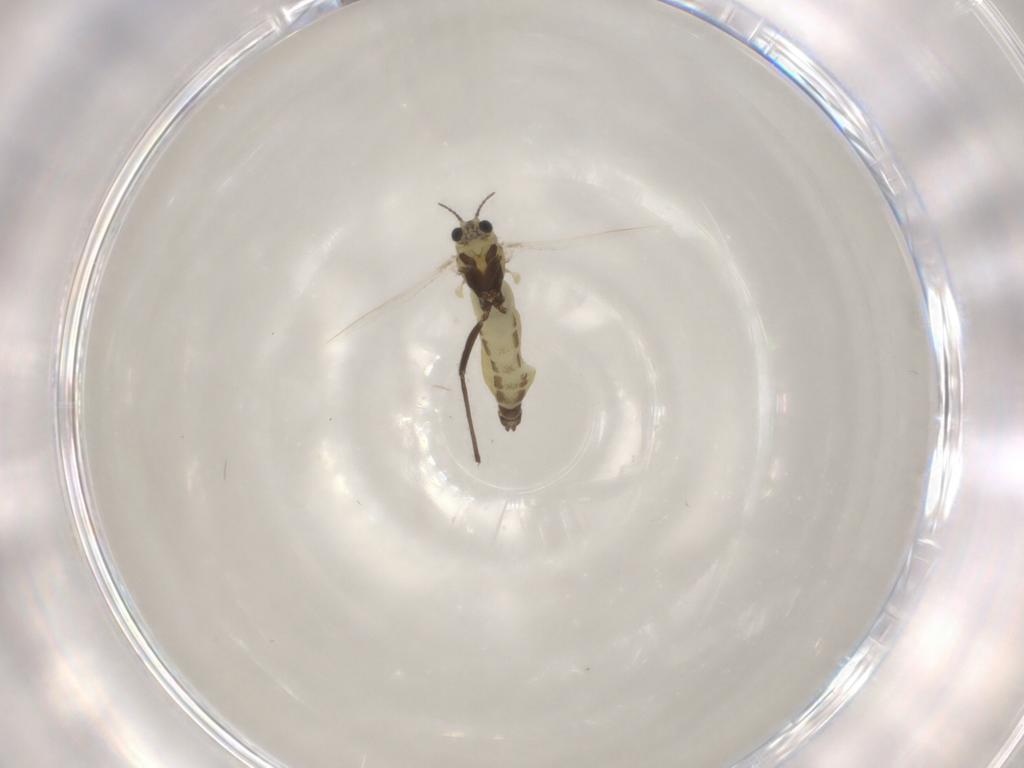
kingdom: Animalia
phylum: Arthropoda
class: Insecta
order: Diptera
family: Chironomidae
